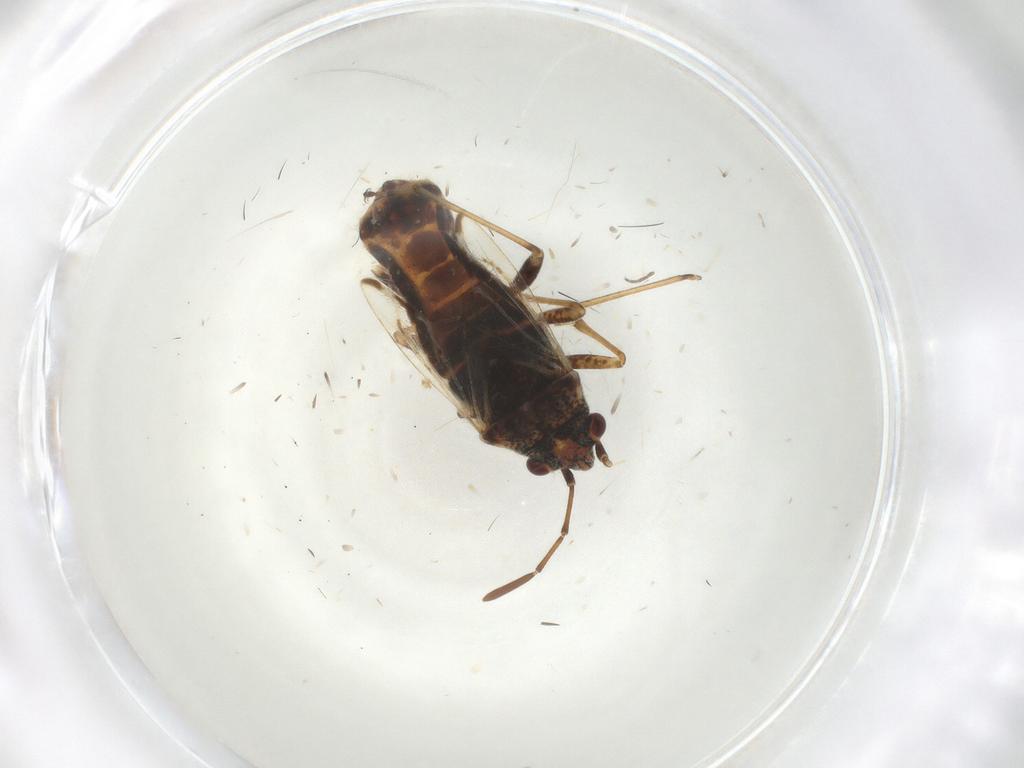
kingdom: Animalia
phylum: Arthropoda
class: Insecta
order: Hemiptera
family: Lygaeidae
